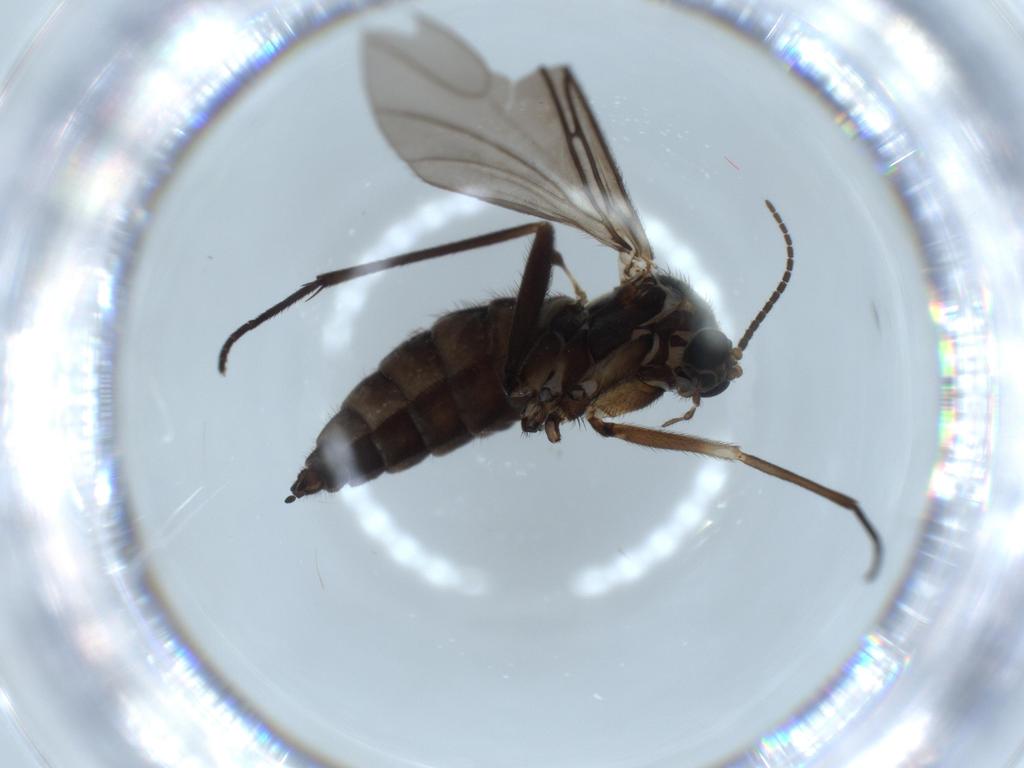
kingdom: Animalia
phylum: Arthropoda
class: Insecta
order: Diptera
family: Sciaridae
